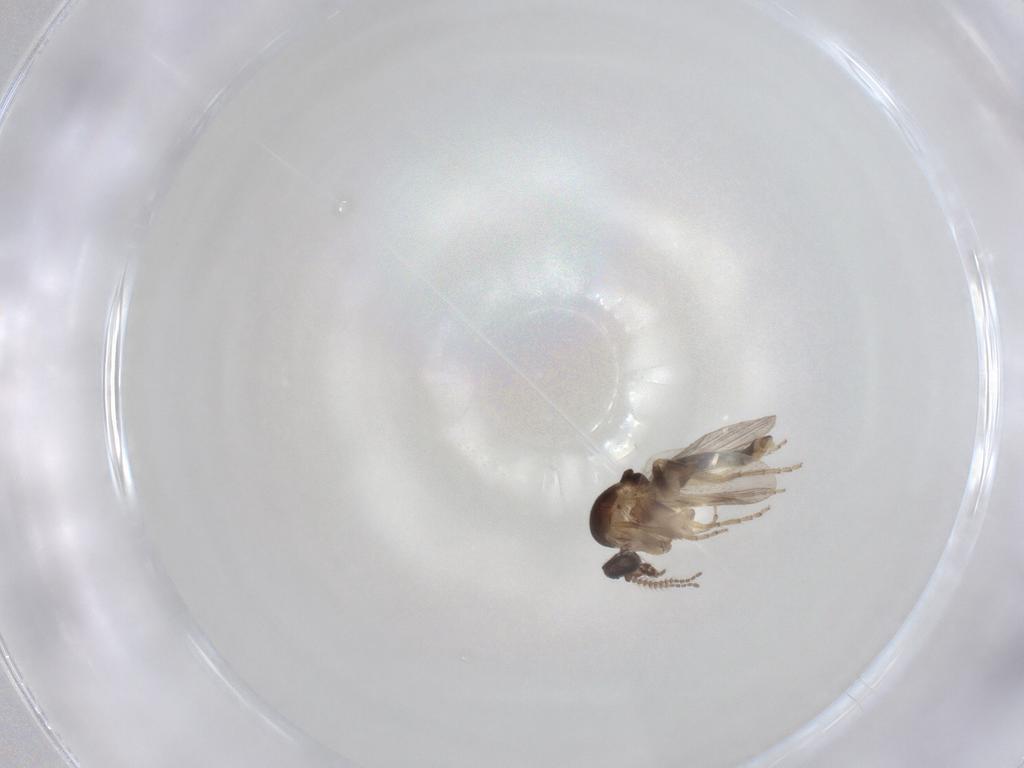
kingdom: Animalia
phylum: Arthropoda
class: Insecta
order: Diptera
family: Ceratopogonidae
